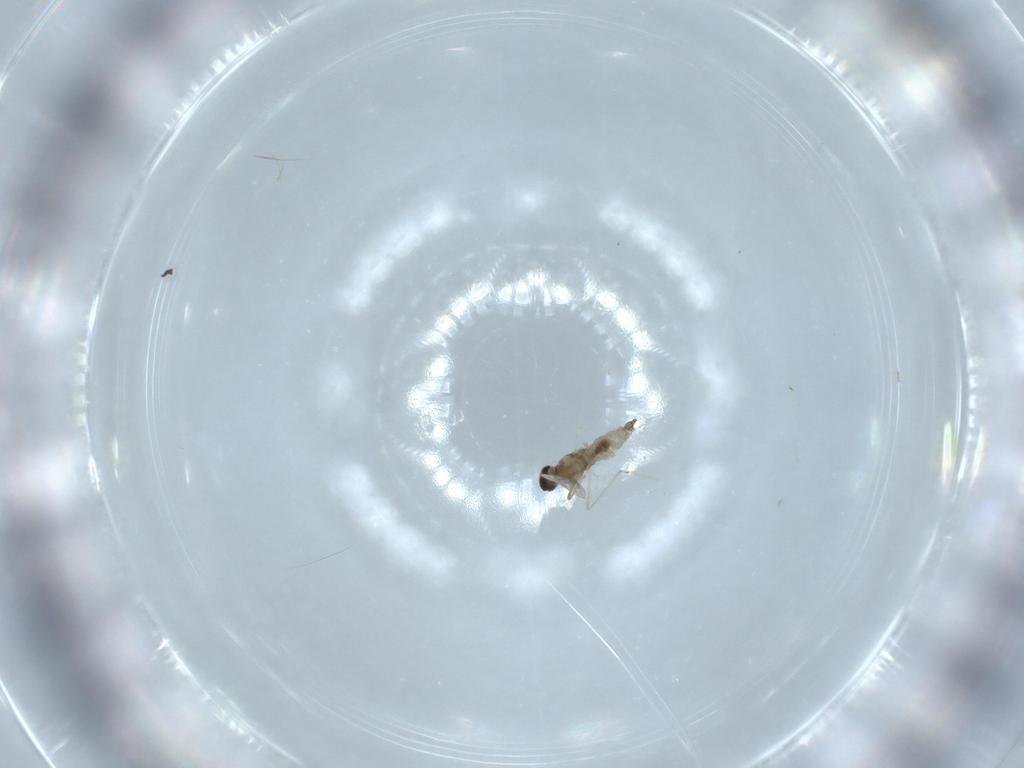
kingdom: Animalia
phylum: Arthropoda
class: Insecta
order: Diptera
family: Cecidomyiidae
